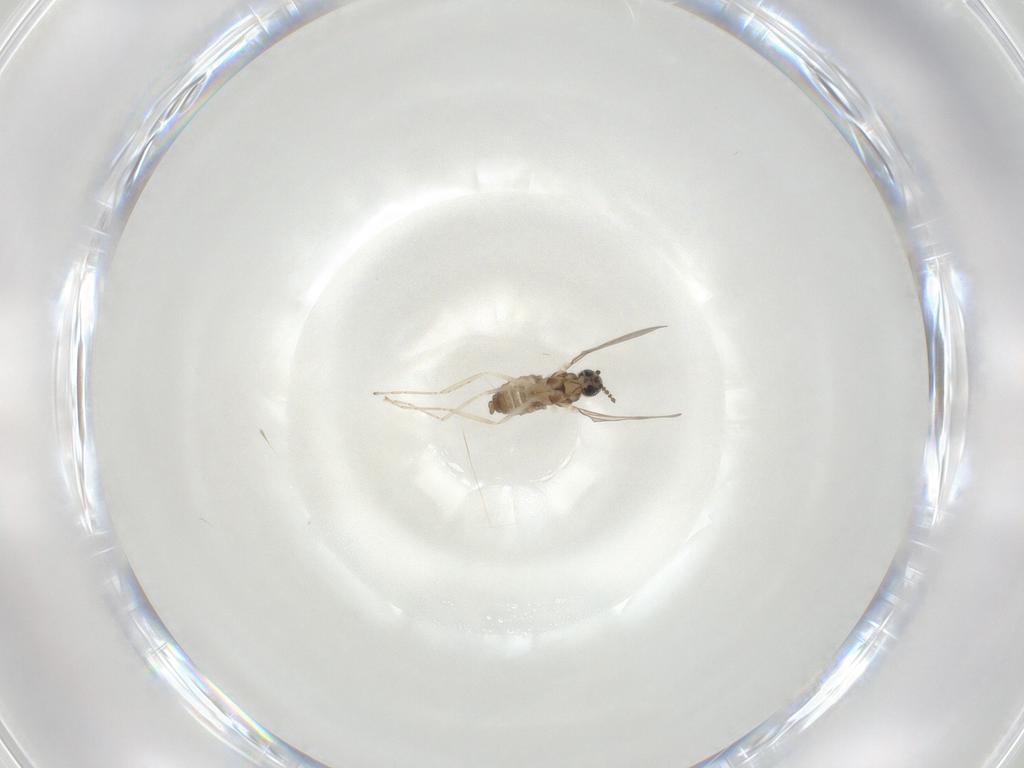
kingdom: Animalia
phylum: Arthropoda
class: Insecta
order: Diptera
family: Cecidomyiidae
